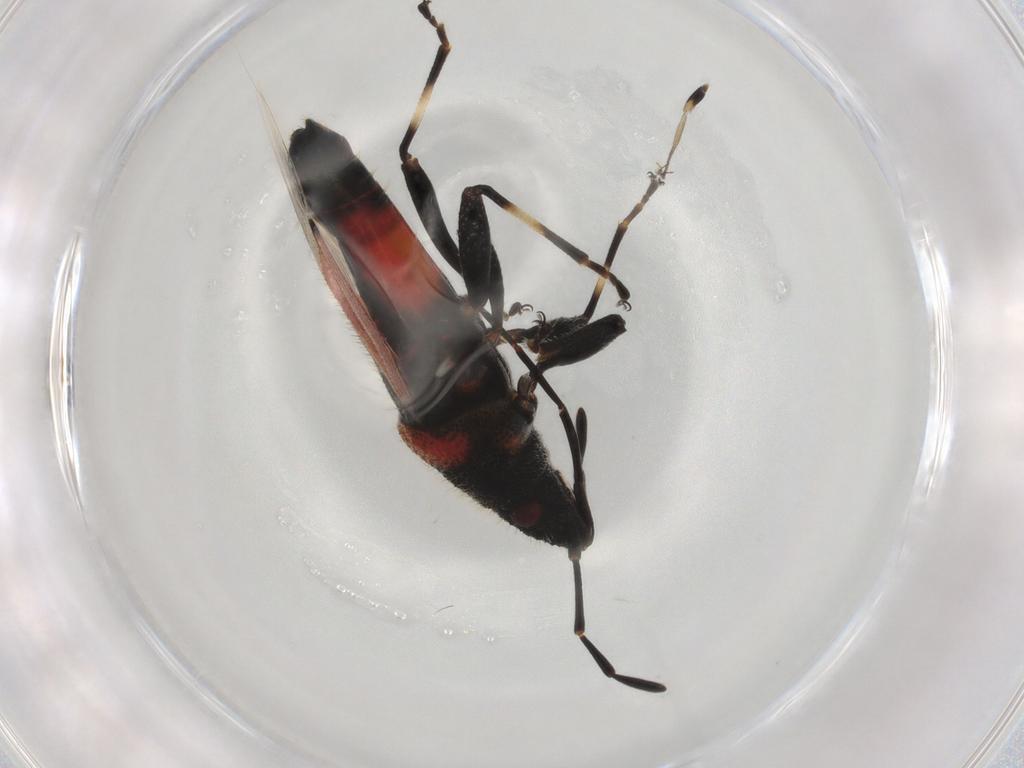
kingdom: Animalia
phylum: Arthropoda
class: Insecta
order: Hemiptera
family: Oxycarenidae
